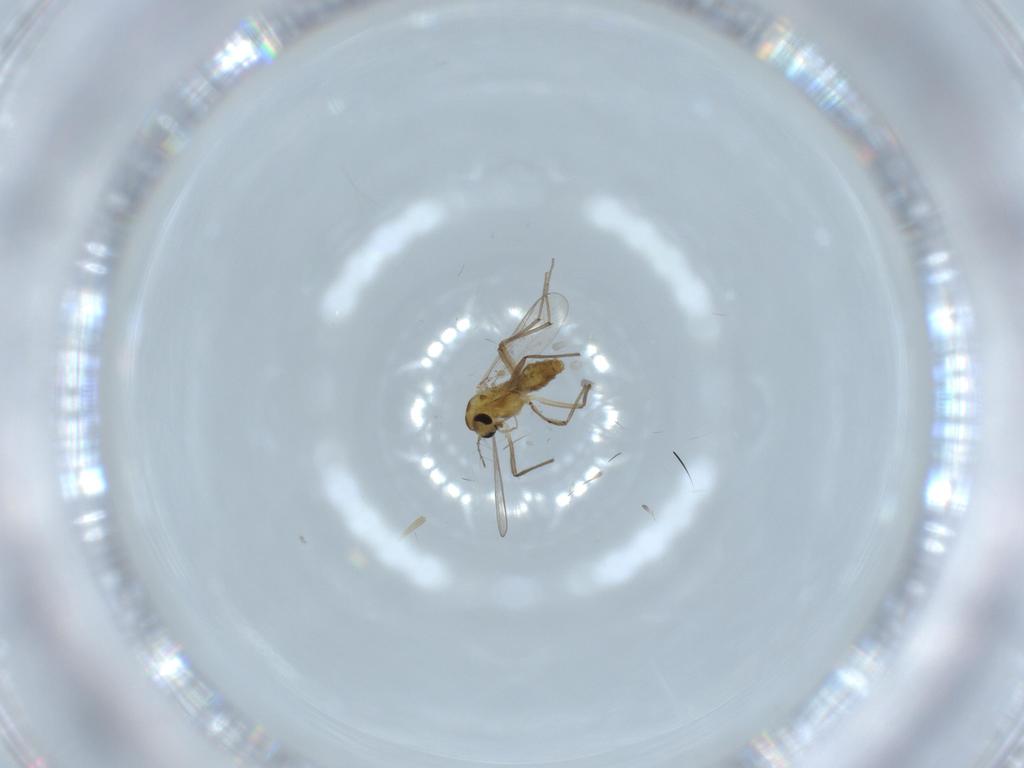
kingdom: Animalia
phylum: Arthropoda
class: Insecta
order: Diptera
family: Chironomidae
